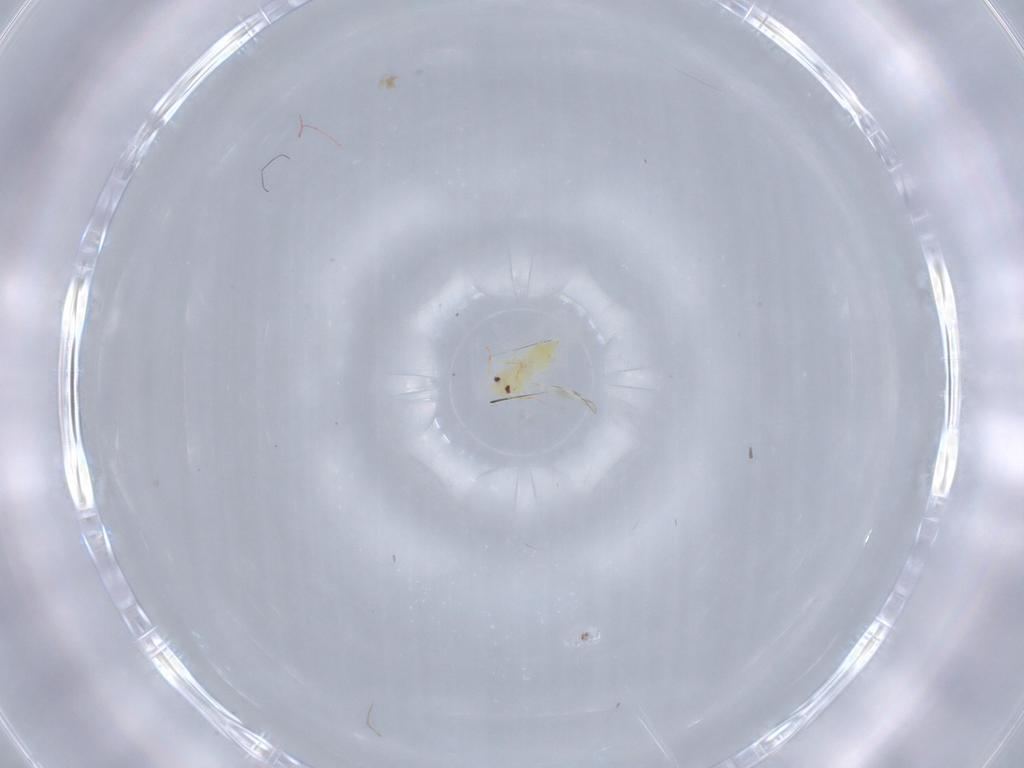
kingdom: Animalia
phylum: Arthropoda
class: Insecta
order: Hemiptera
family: Aleyrodidae
